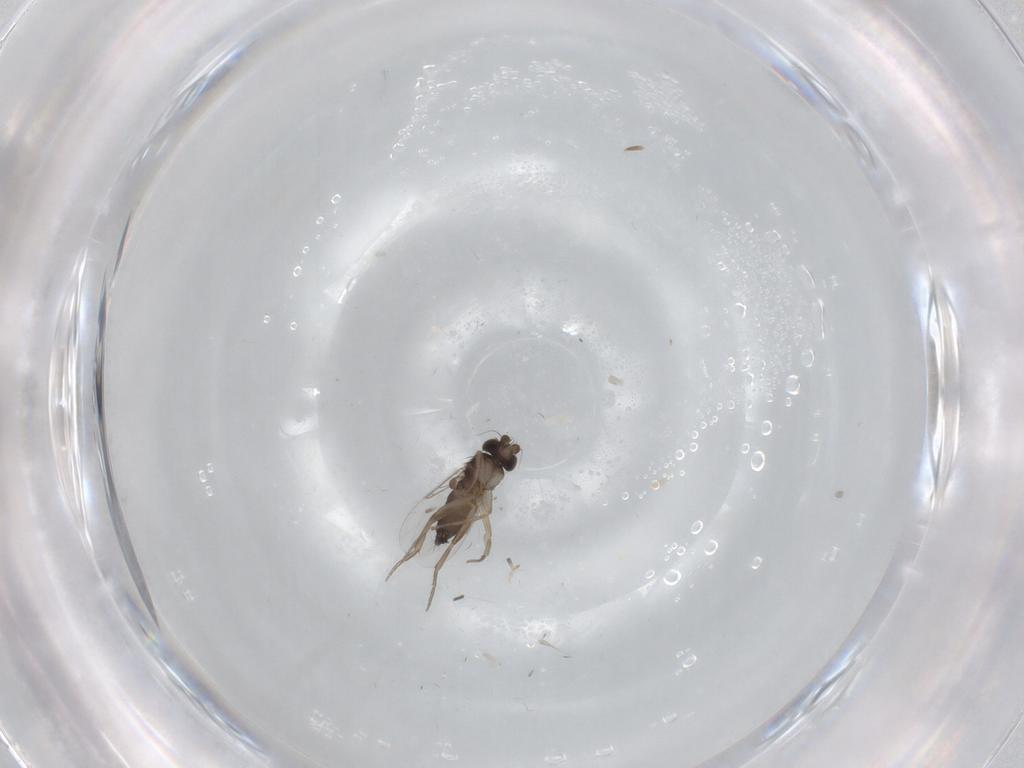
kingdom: Animalia
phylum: Arthropoda
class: Insecta
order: Diptera
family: Phoridae
